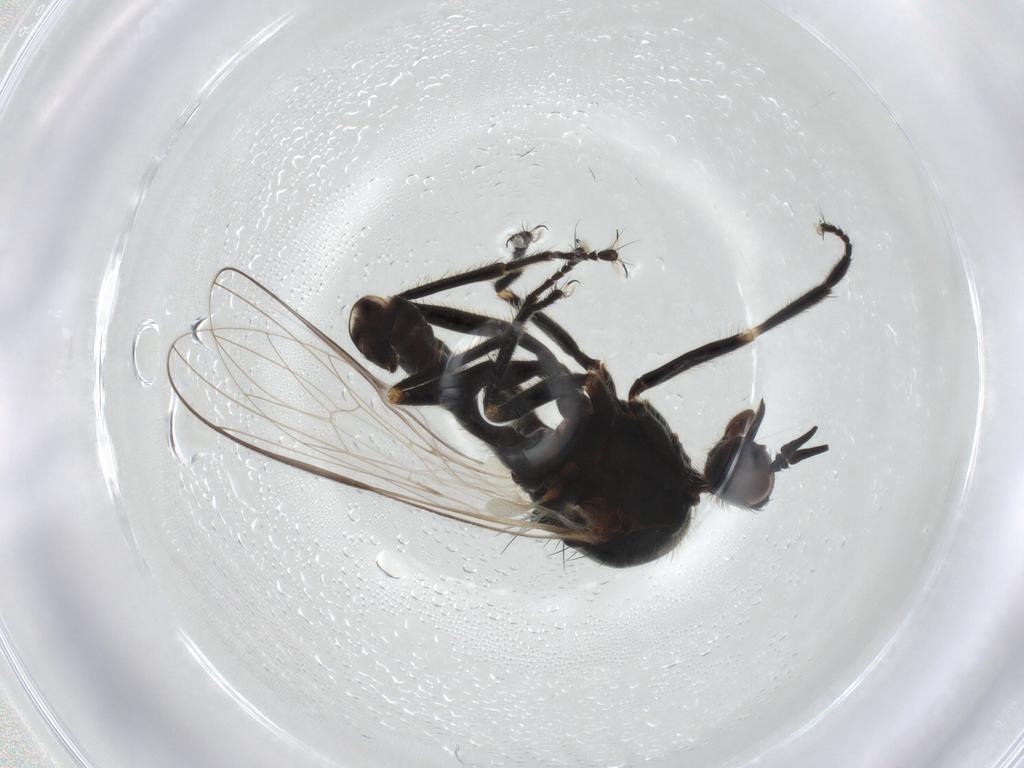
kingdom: Animalia
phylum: Arthropoda
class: Insecta
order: Diptera
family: Empididae
